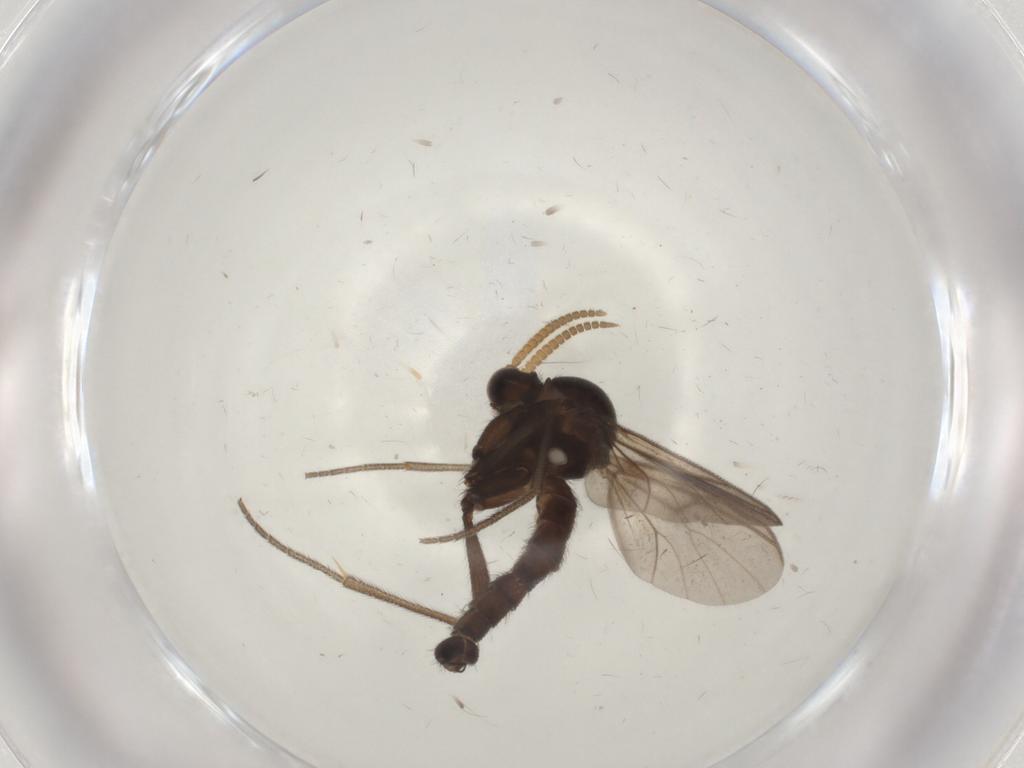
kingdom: Animalia
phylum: Arthropoda
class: Insecta
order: Diptera
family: Mycetophilidae
